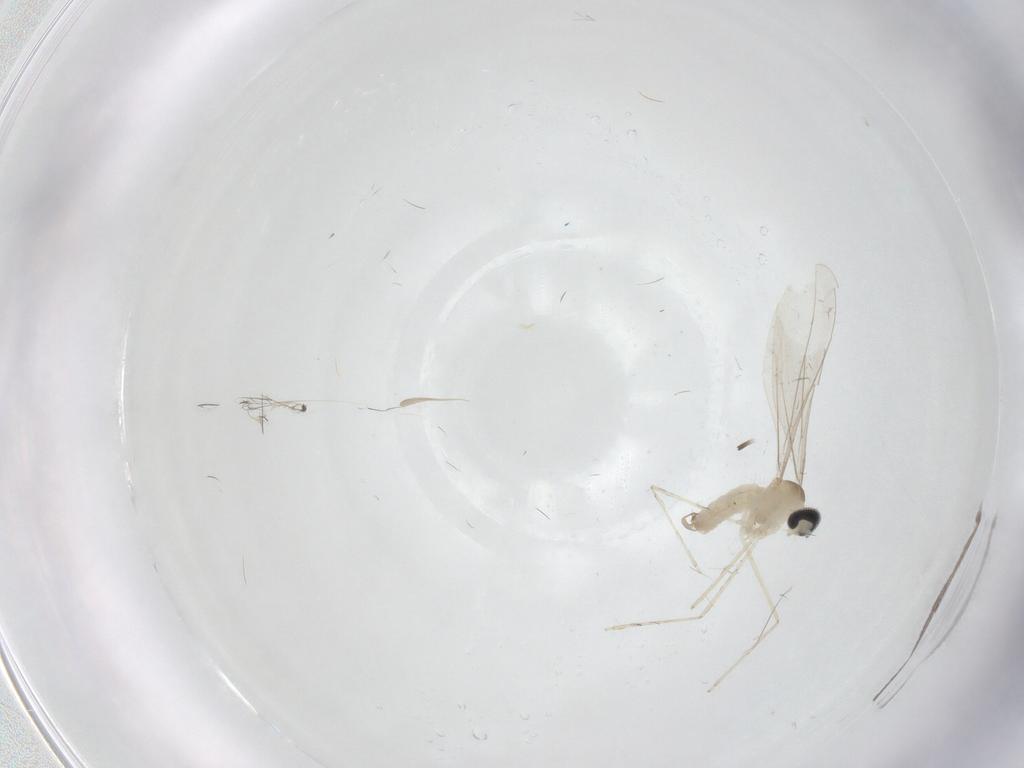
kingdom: Animalia
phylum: Arthropoda
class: Insecta
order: Diptera
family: Cecidomyiidae
